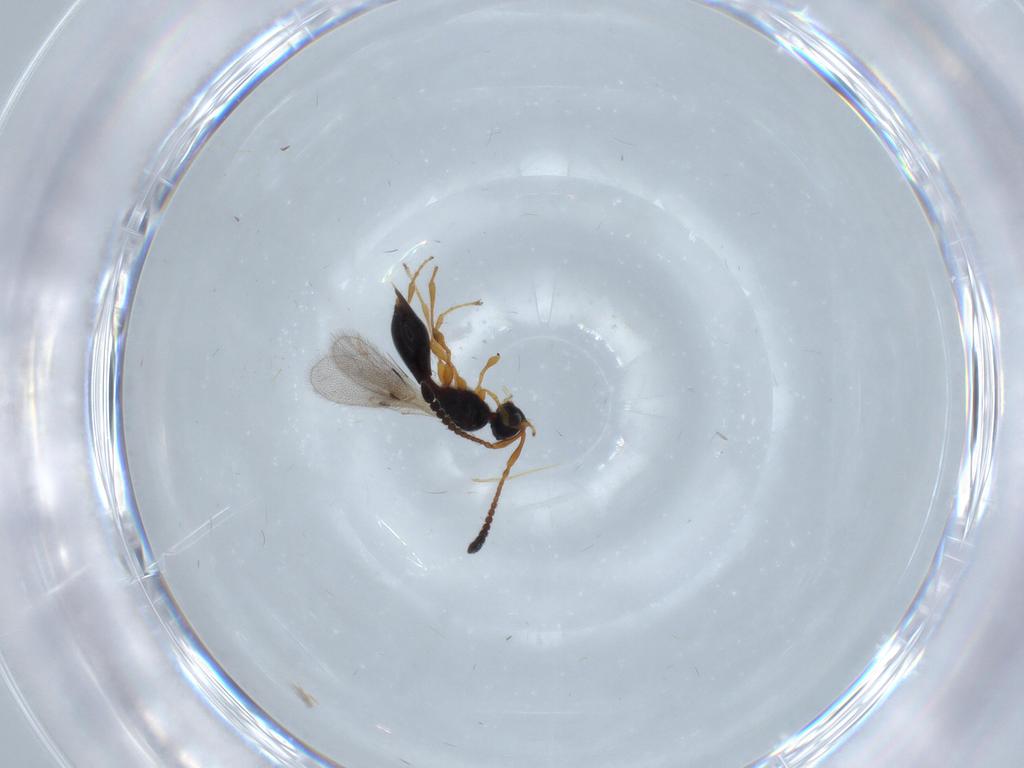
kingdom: Animalia
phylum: Arthropoda
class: Insecta
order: Hymenoptera
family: Diapriidae
